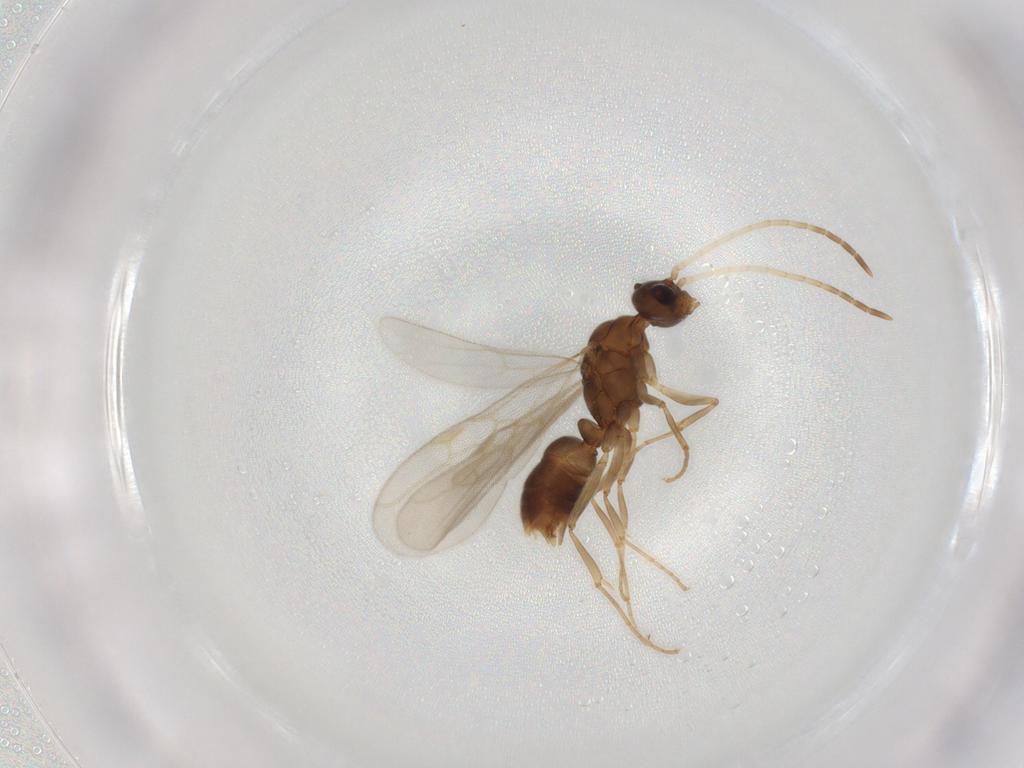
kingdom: Animalia
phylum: Arthropoda
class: Insecta
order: Hymenoptera
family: Formicidae
